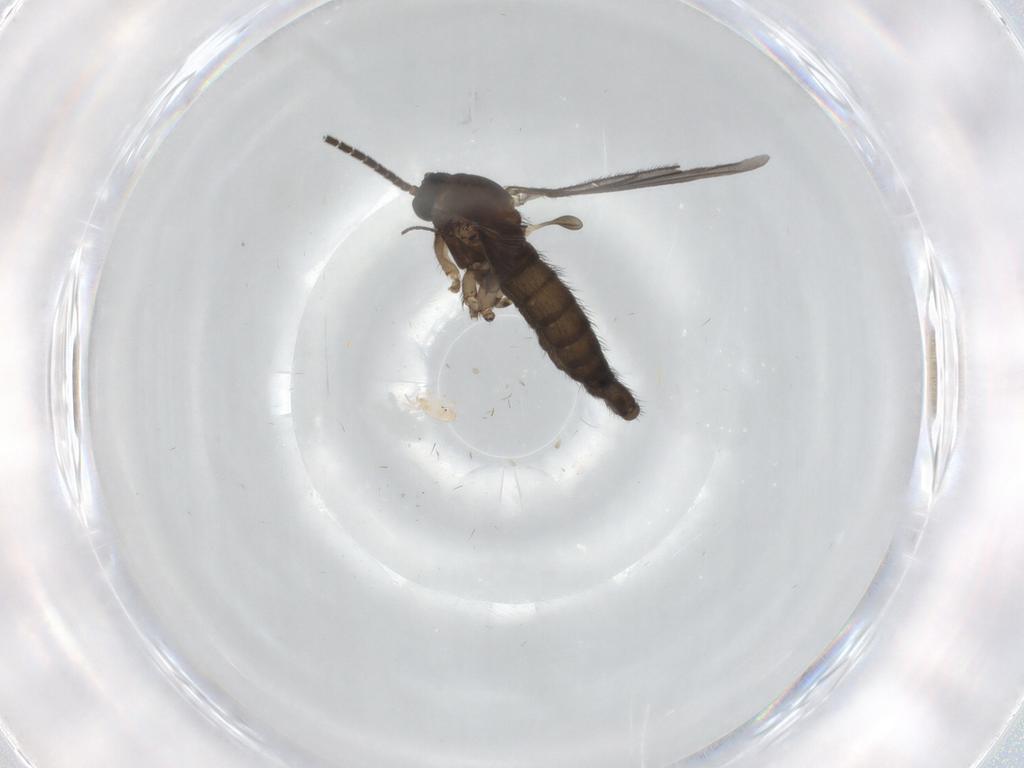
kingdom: Animalia
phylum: Arthropoda
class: Insecta
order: Diptera
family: Sciaridae
